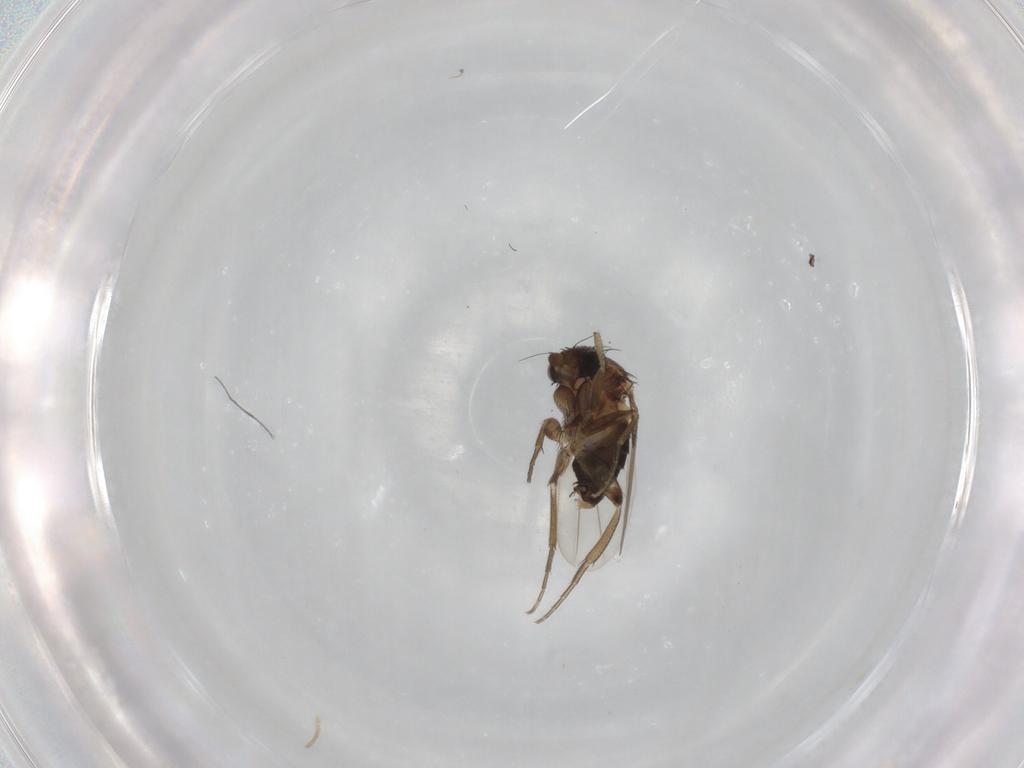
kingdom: Animalia
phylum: Arthropoda
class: Insecta
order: Diptera
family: Phoridae
